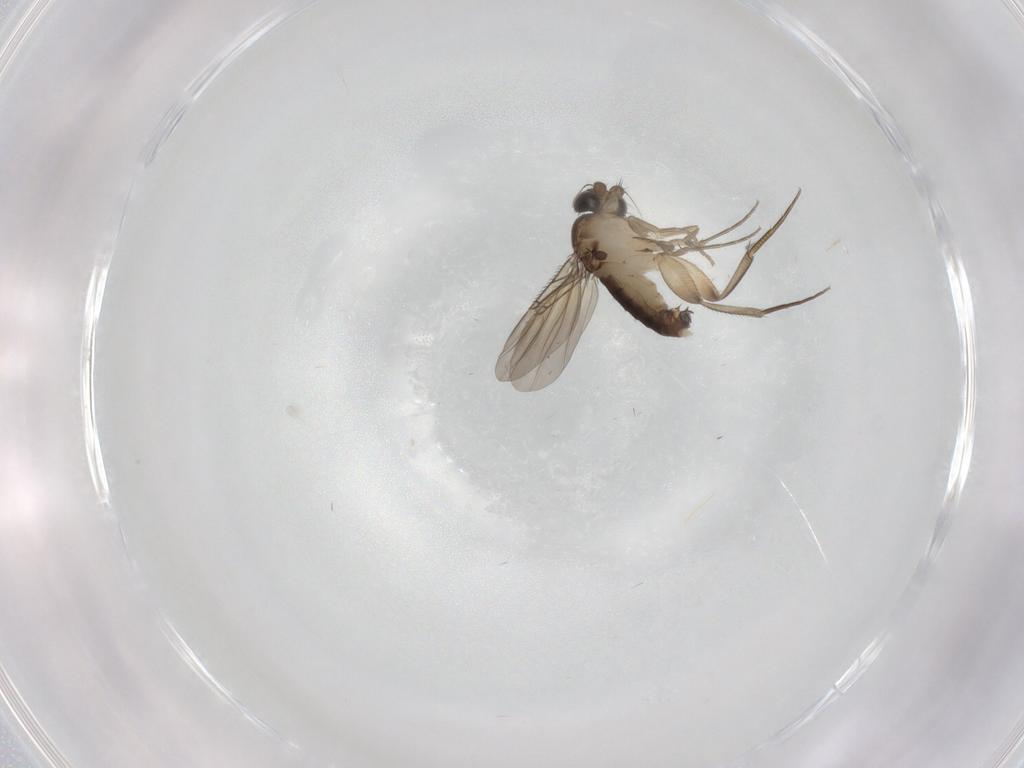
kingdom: Animalia
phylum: Arthropoda
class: Insecta
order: Diptera
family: Phoridae
